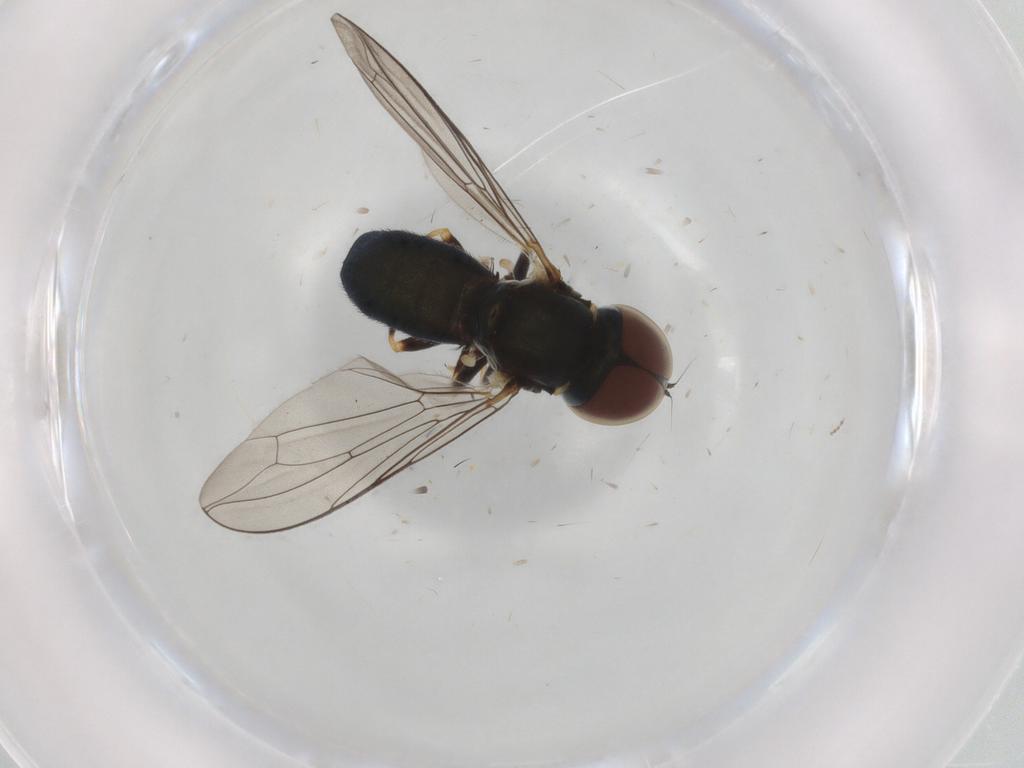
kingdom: Animalia
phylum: Arthropoda
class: Insecta
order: Diptera
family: Pipunculidae
